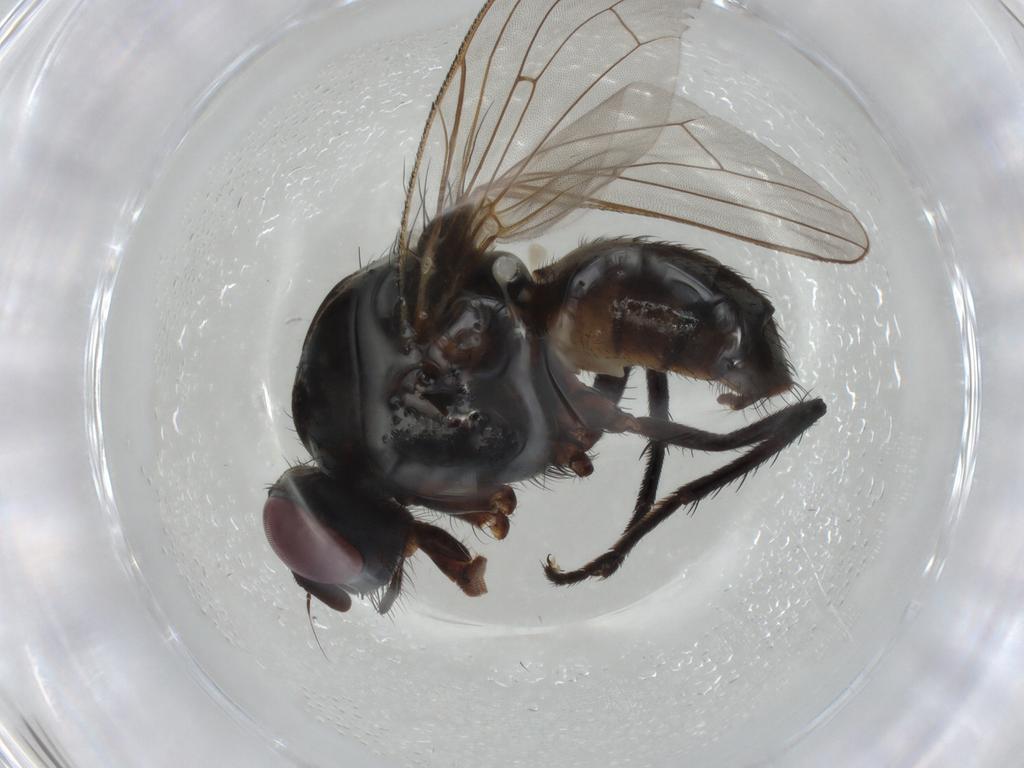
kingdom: Animalia
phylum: Arthropoda
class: Insecta
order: Diptera
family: Anthomyiidae
